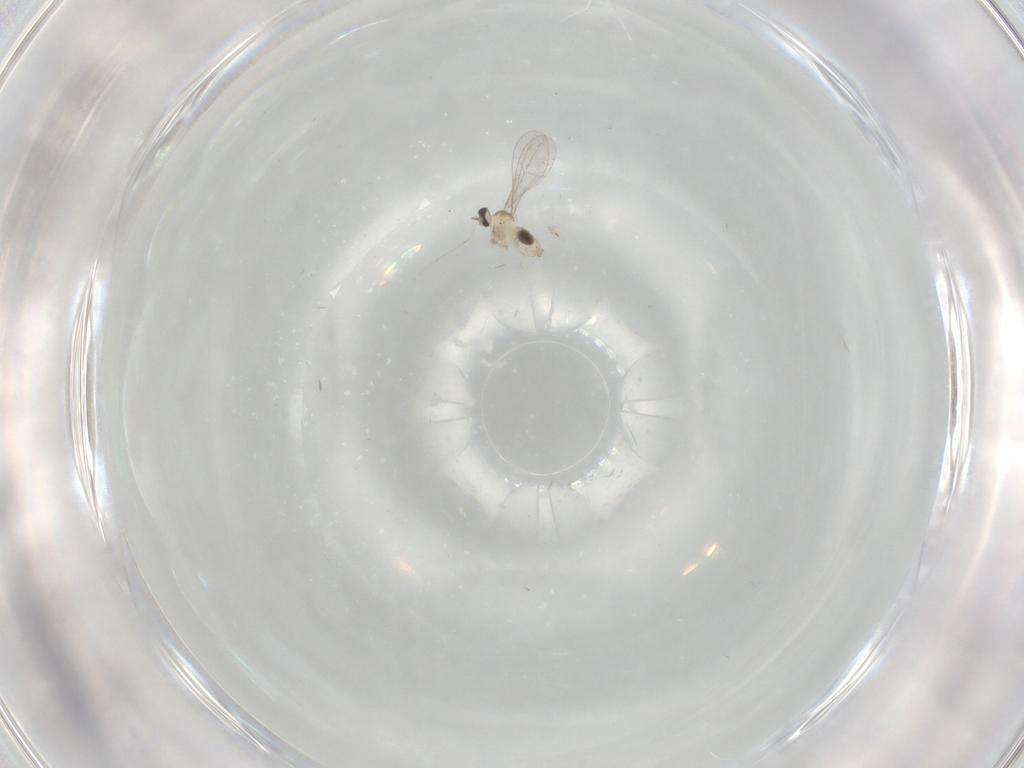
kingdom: Animalia
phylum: Arthropoda
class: Insecta
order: Diptera
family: Cecidomyiidae
